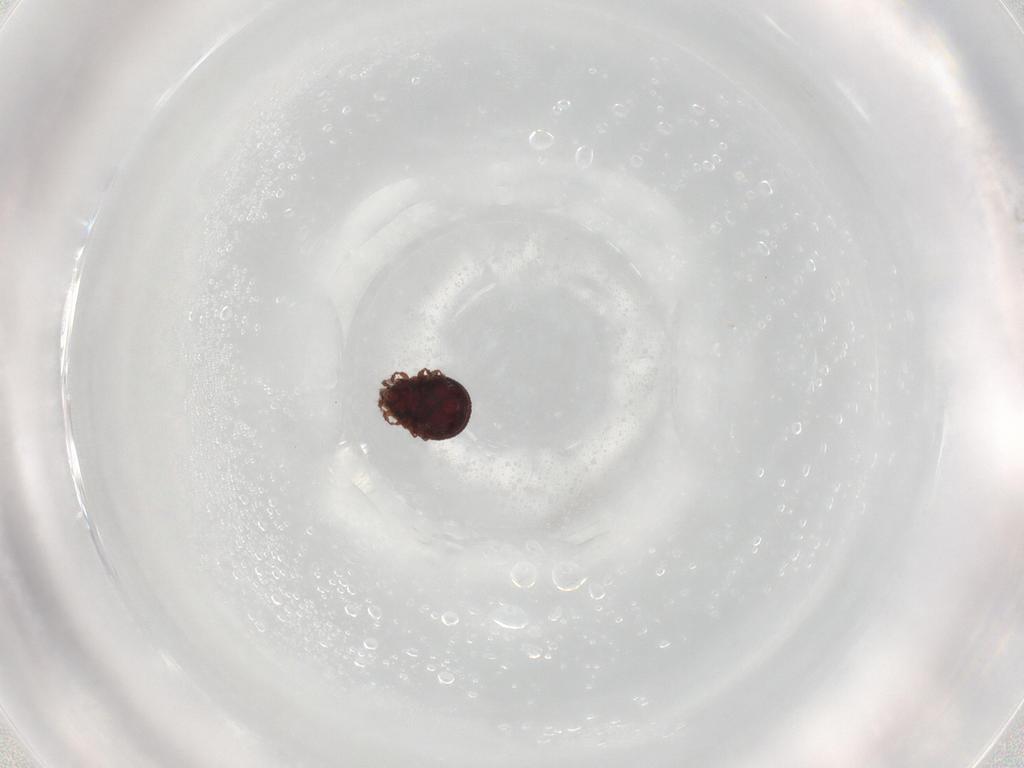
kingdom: Animalia
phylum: Arthropoda
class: Arachnida
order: Sarcoptiformes
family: Cepheusidae
